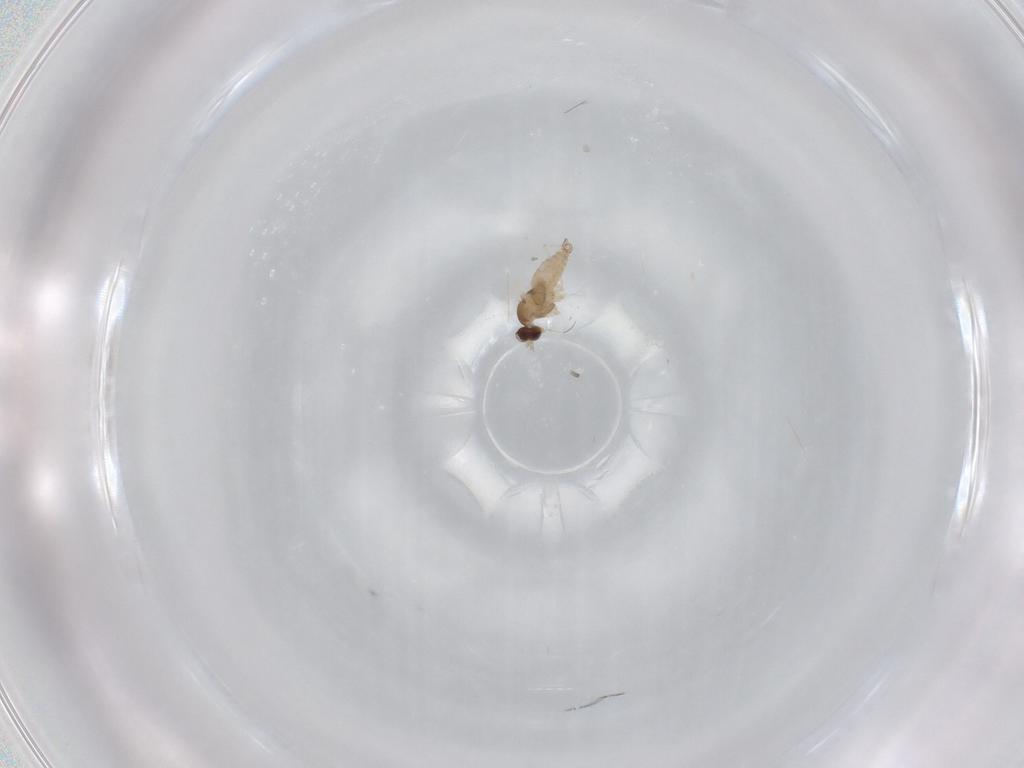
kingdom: Animalia
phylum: Arthropoda
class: Insecta
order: Diptera
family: Cecidomyiidae
